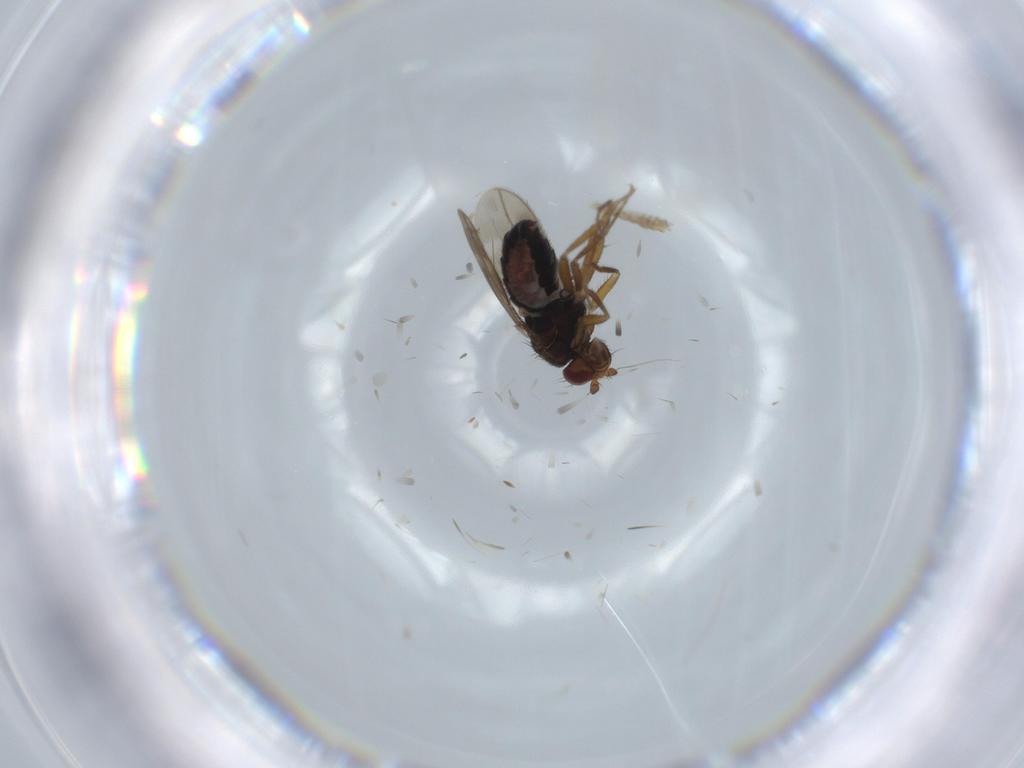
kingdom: Animalia
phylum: Arthropoda
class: Insecta
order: Diptera
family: Sphaeroceridae
